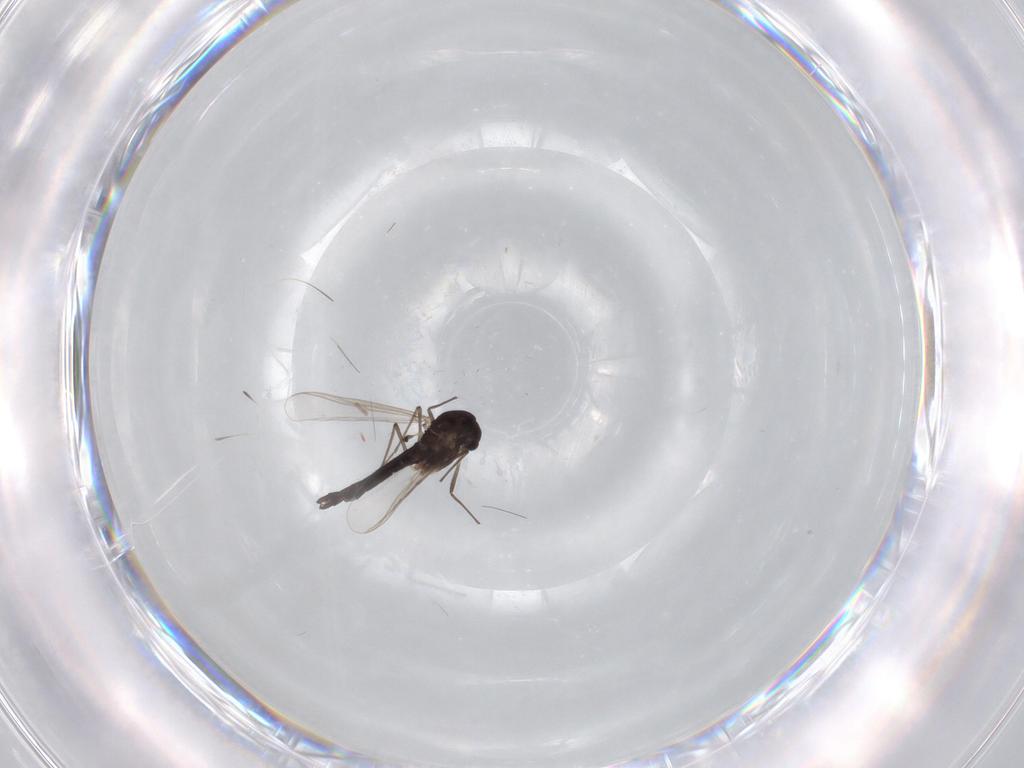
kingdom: Animalia
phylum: Arthropoda
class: Insecta
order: Diptera
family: Chironomidae
